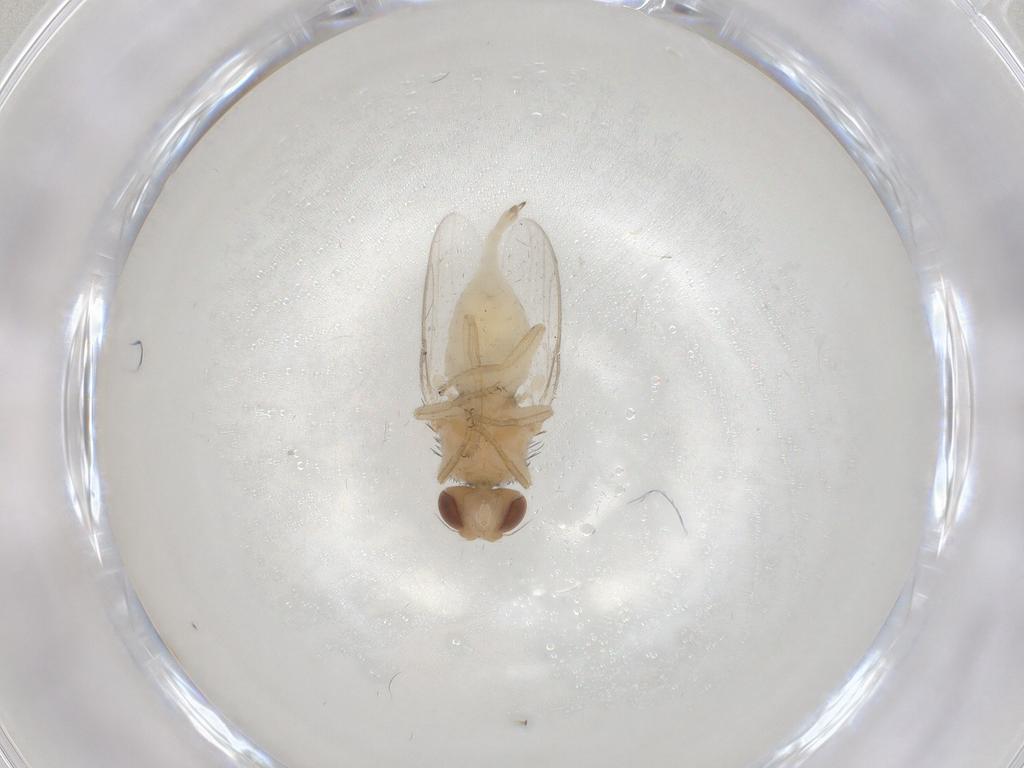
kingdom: Animalia
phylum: Arthropoda
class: Insecta
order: Diptera
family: Chloropidae
